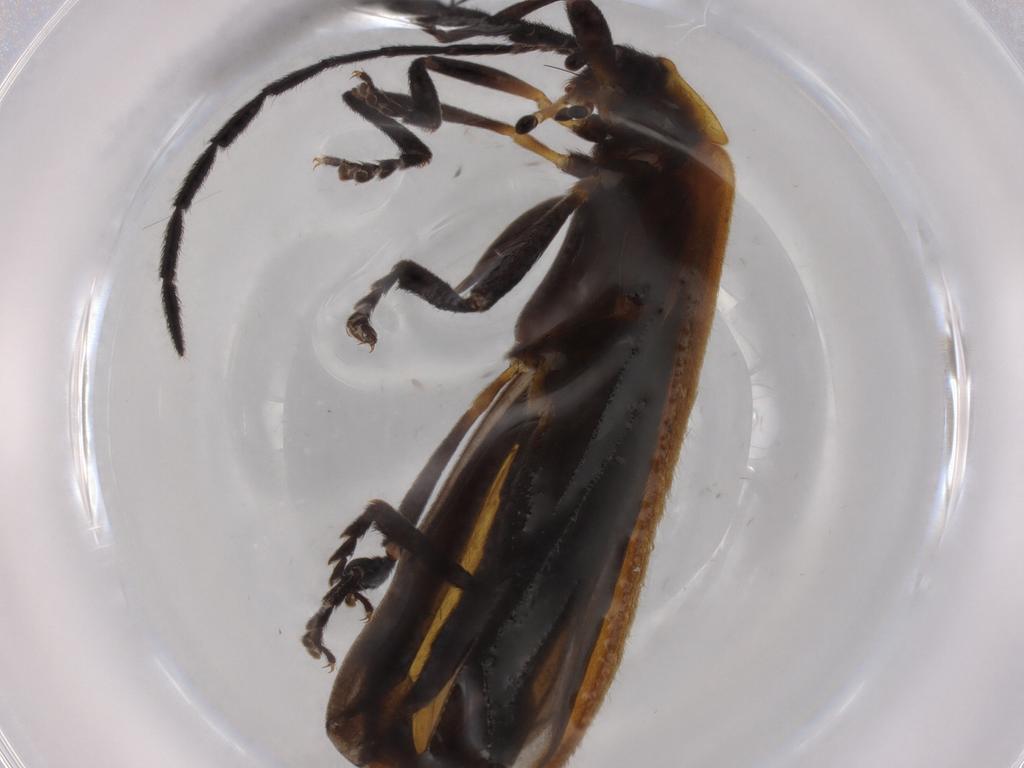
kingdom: Animalia
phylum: Arthropoda
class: Insecta
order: Coleoptera
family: Lycidae
